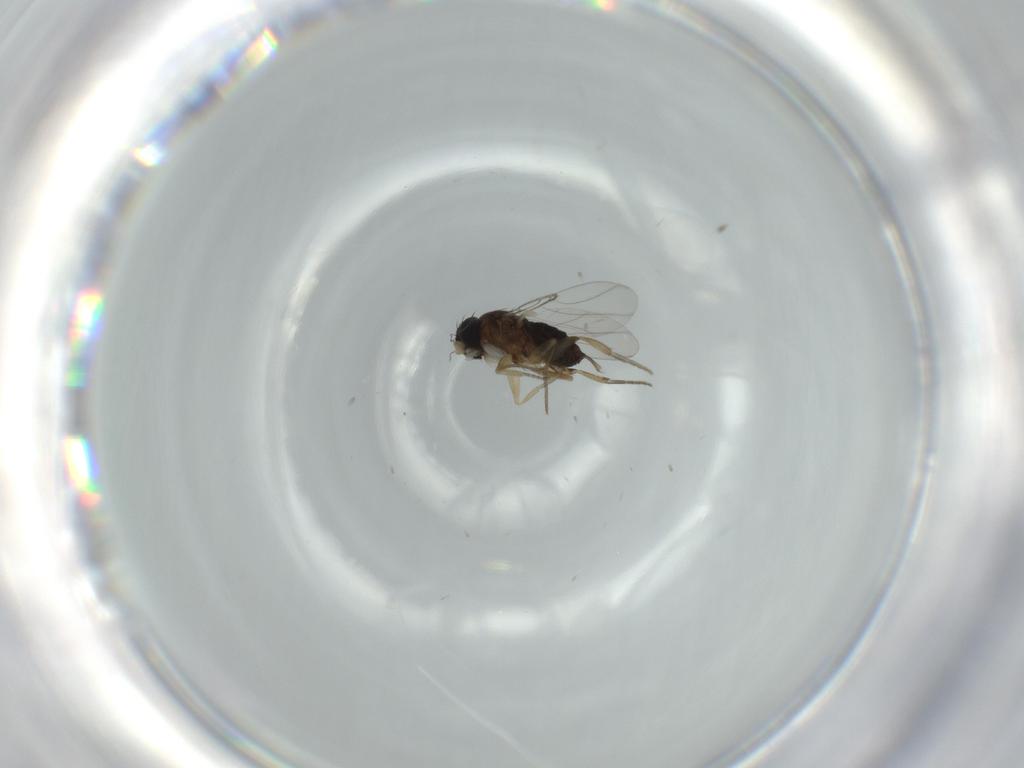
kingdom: Animalia
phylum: Arthropoda
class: Insecta
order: Diptera
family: Phoridae
